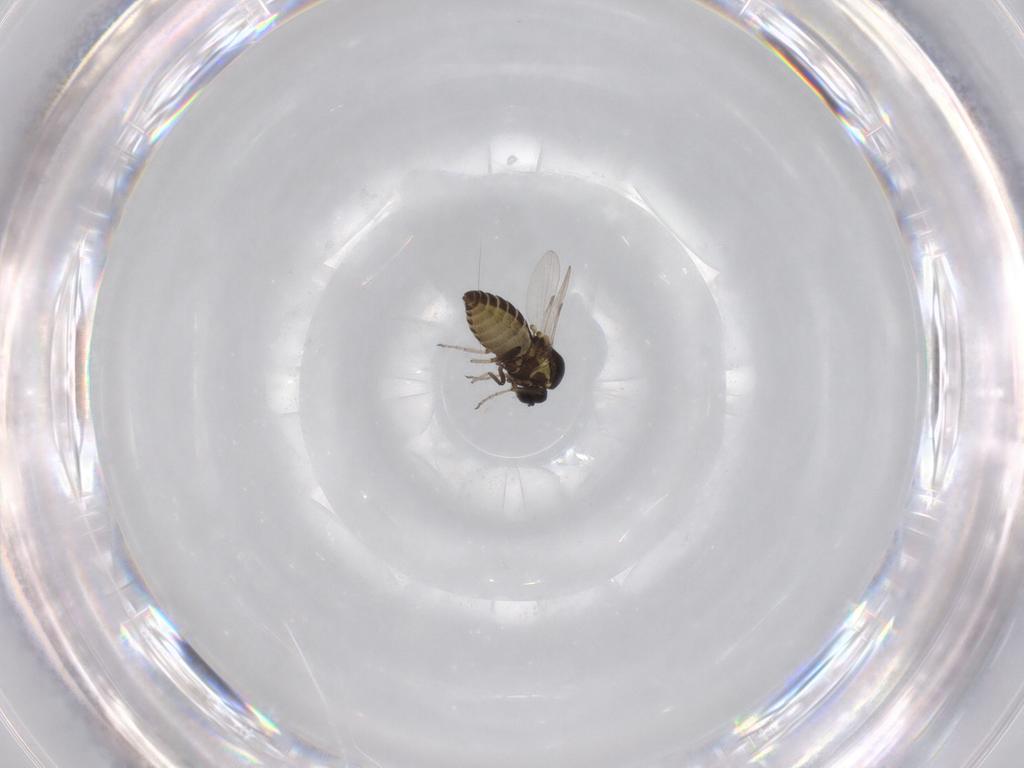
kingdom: Animalia
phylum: Arthropoda
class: Insecta
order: Diptera
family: Ceratopogonidae
